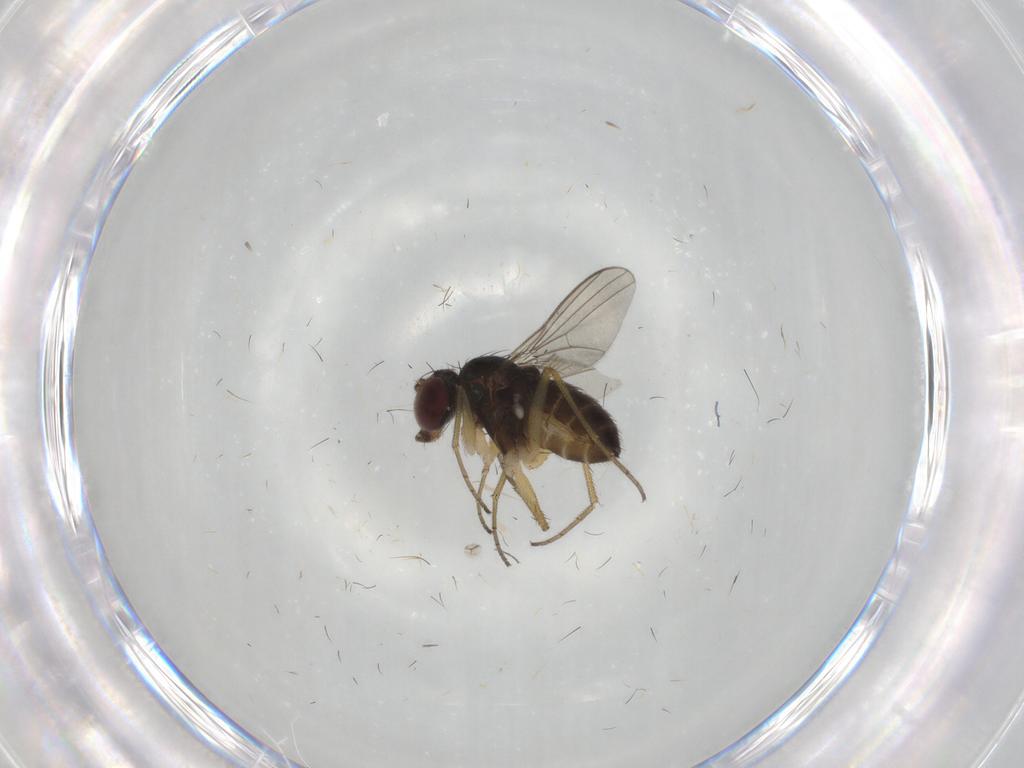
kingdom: Animalia
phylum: Arthropoda
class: Insecta
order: Diptera
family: Dolichopodidae
